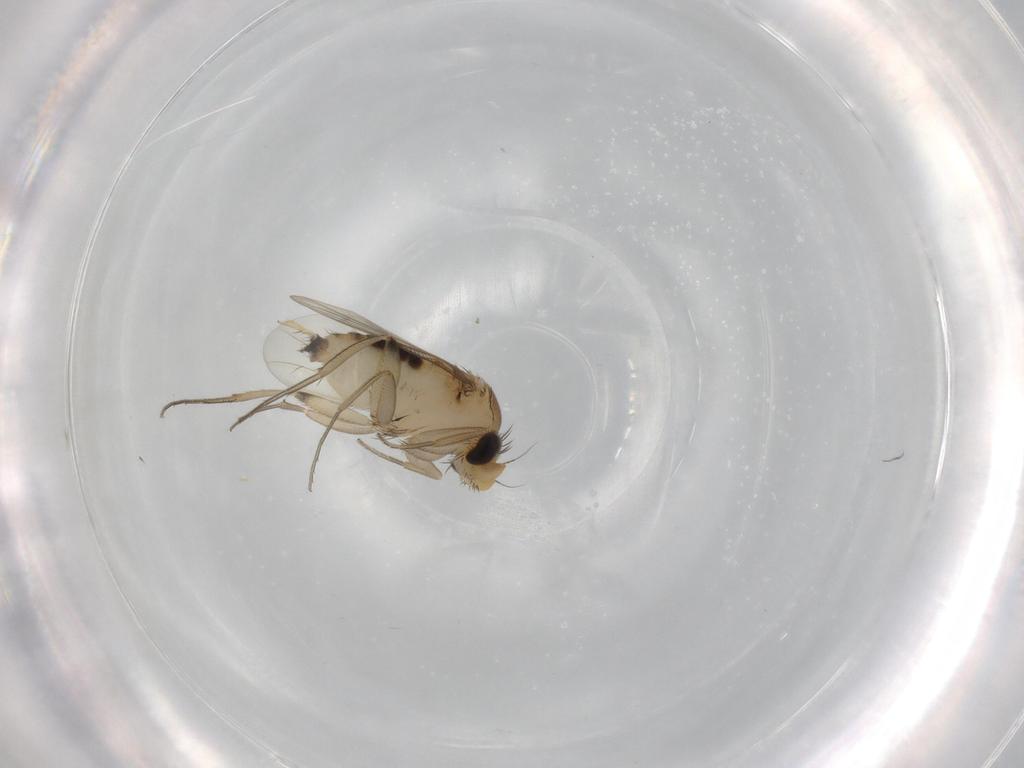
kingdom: Animalia
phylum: Arthropoda
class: Insecta
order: Diptera
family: Phoridae
